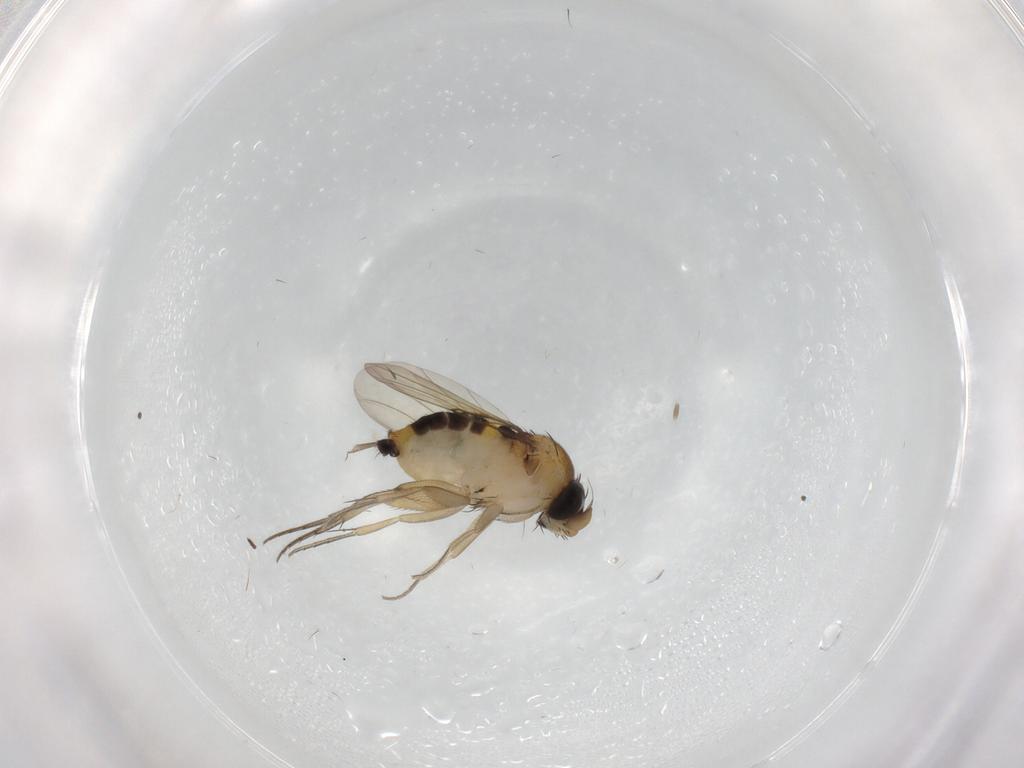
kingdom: Animalia
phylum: Arthropoda
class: Insecta
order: Diptera
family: Phoridae
